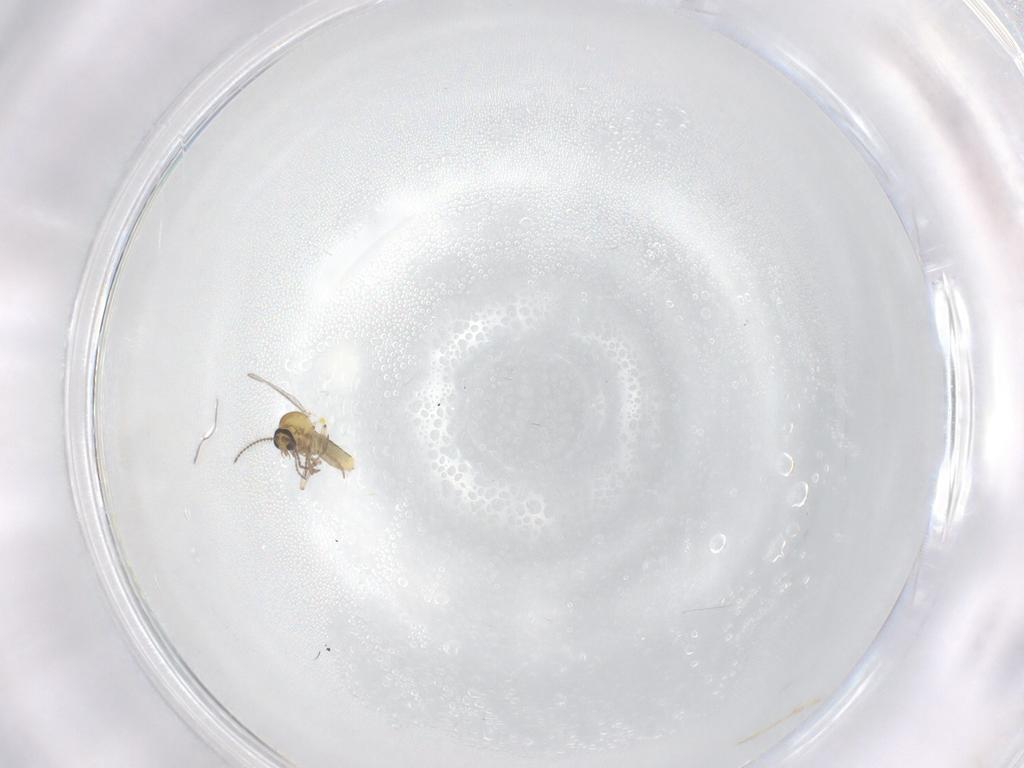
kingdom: Animalia
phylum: Arthropoda
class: Insecta
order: Diptera
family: Ceratopogonidae
